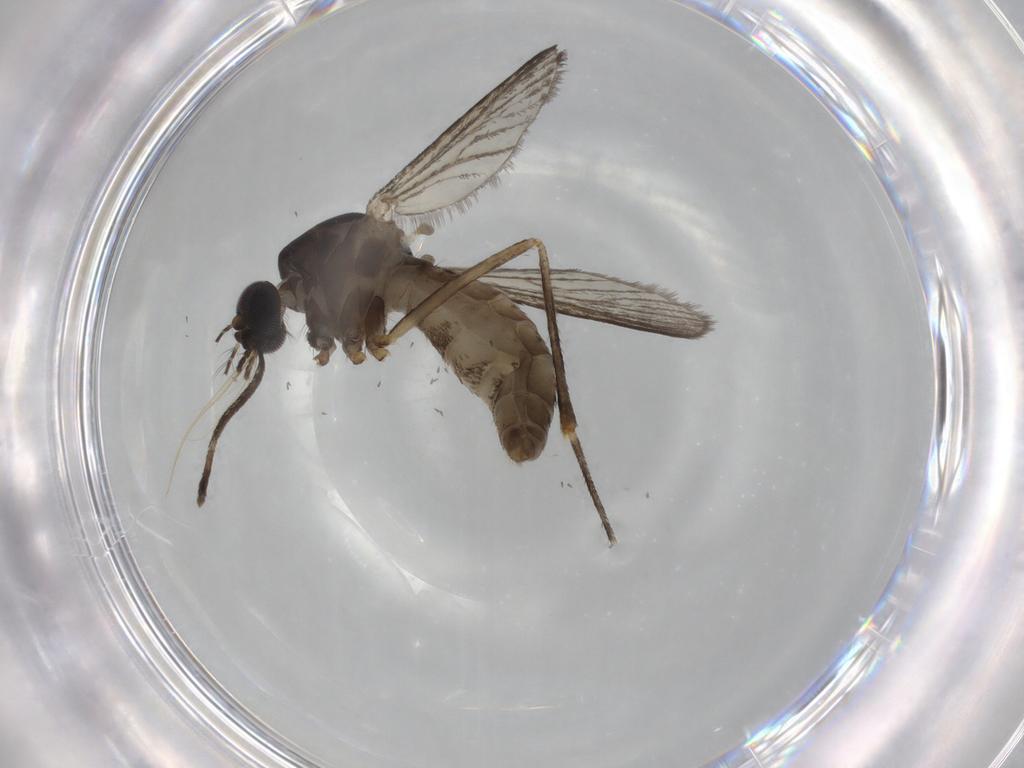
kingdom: Animalia
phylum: Arthropoda
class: Insecta
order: Diptera
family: Cecidomyiidae
